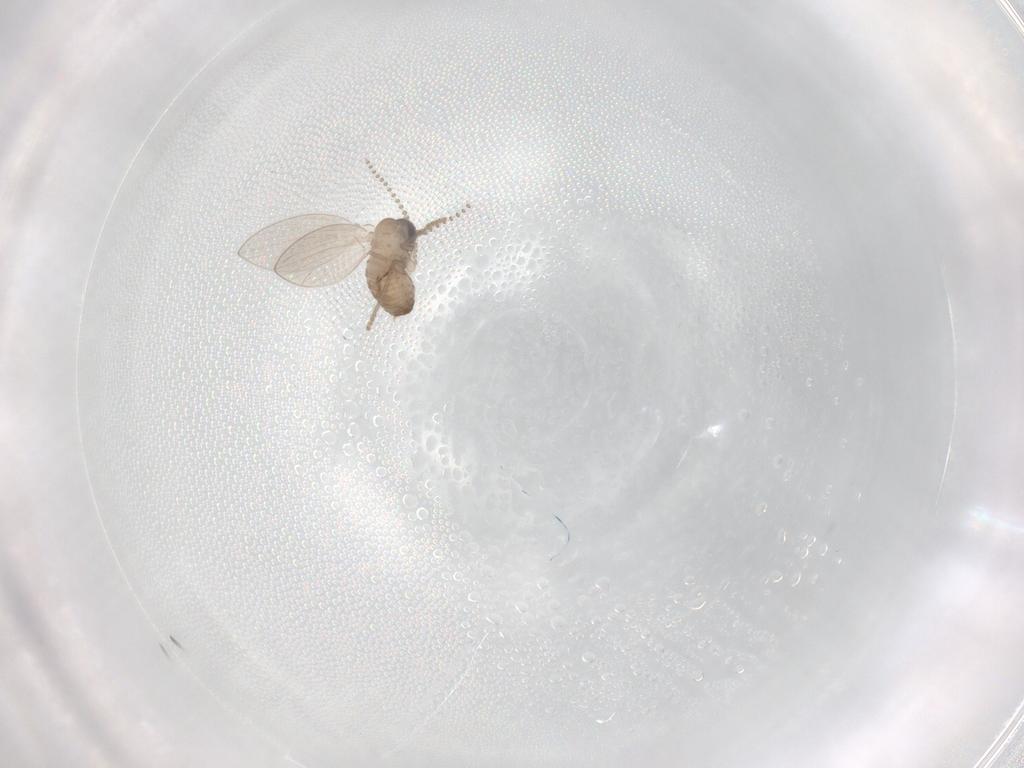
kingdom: Animalia
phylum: Arthropoda
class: Insecta
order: Diptera
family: Psychodidae
